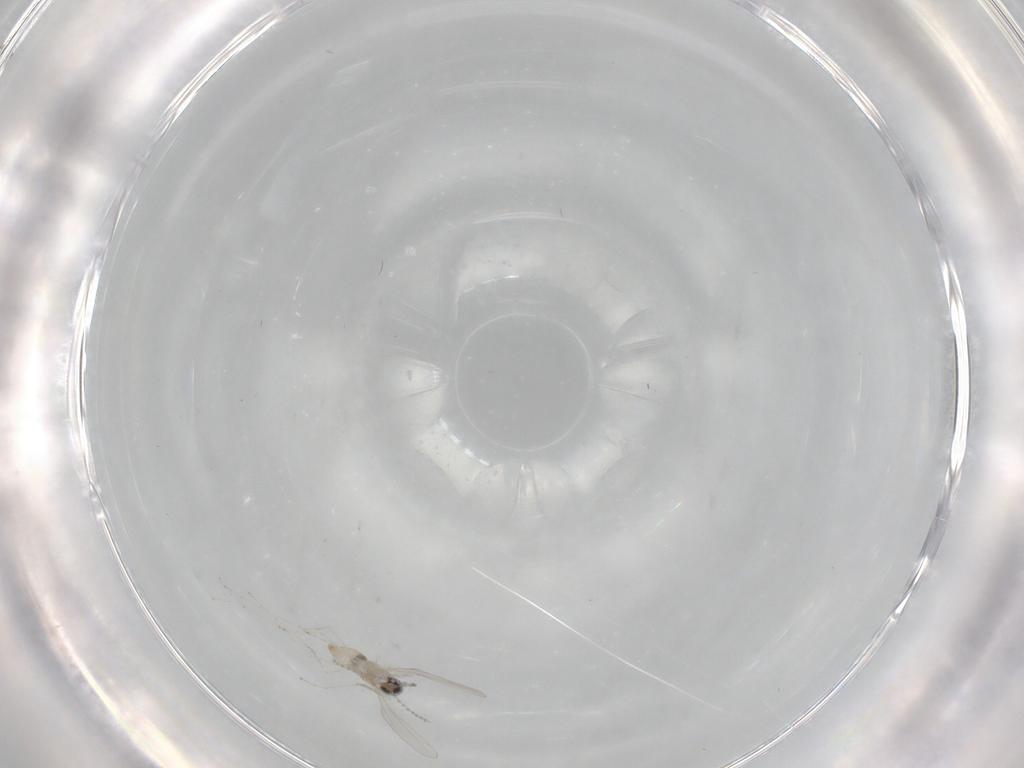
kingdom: Animalia
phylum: Arthropoda
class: Insecta
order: Diptera
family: Cecidomyiidae
